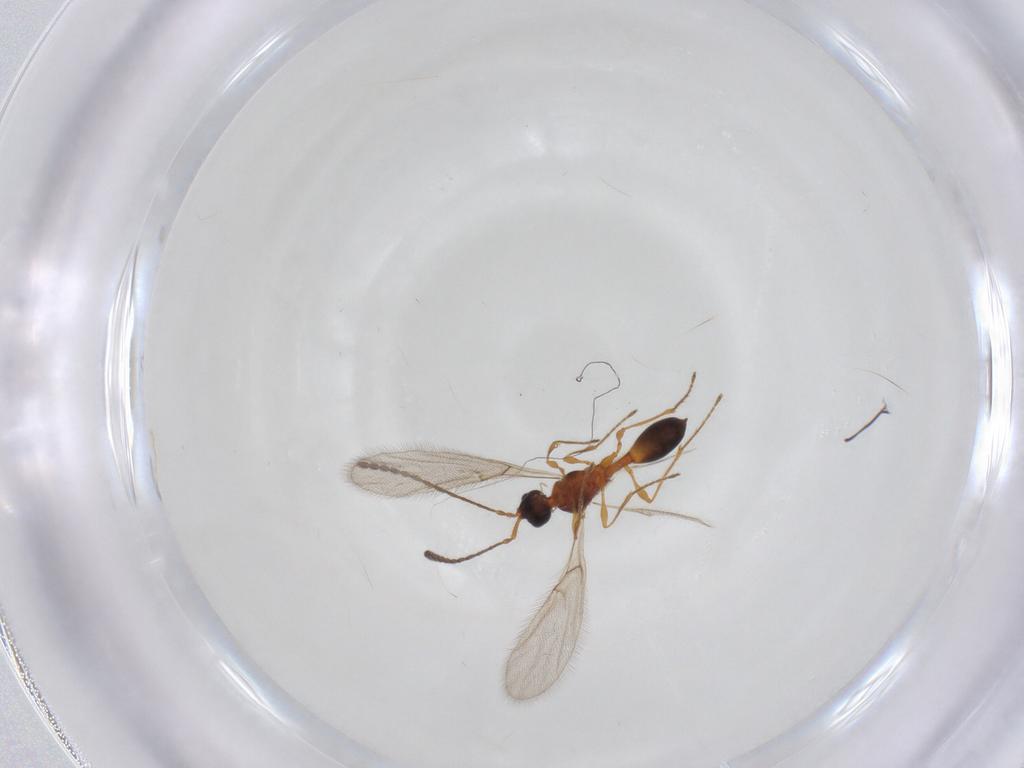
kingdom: Animalia
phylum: Arthropoda
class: Insecta
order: Hymenoptera
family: Diapriidae
